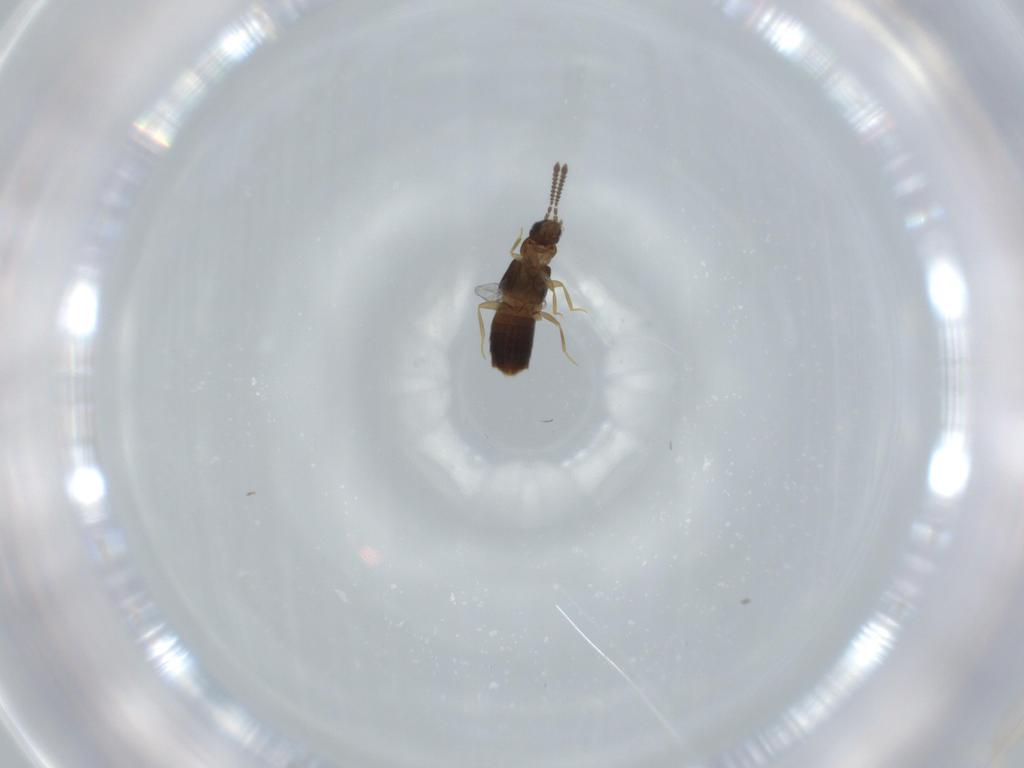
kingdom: Animalia
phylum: Arthropoda
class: Insecta
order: Coleoptera
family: Staphylinidae
